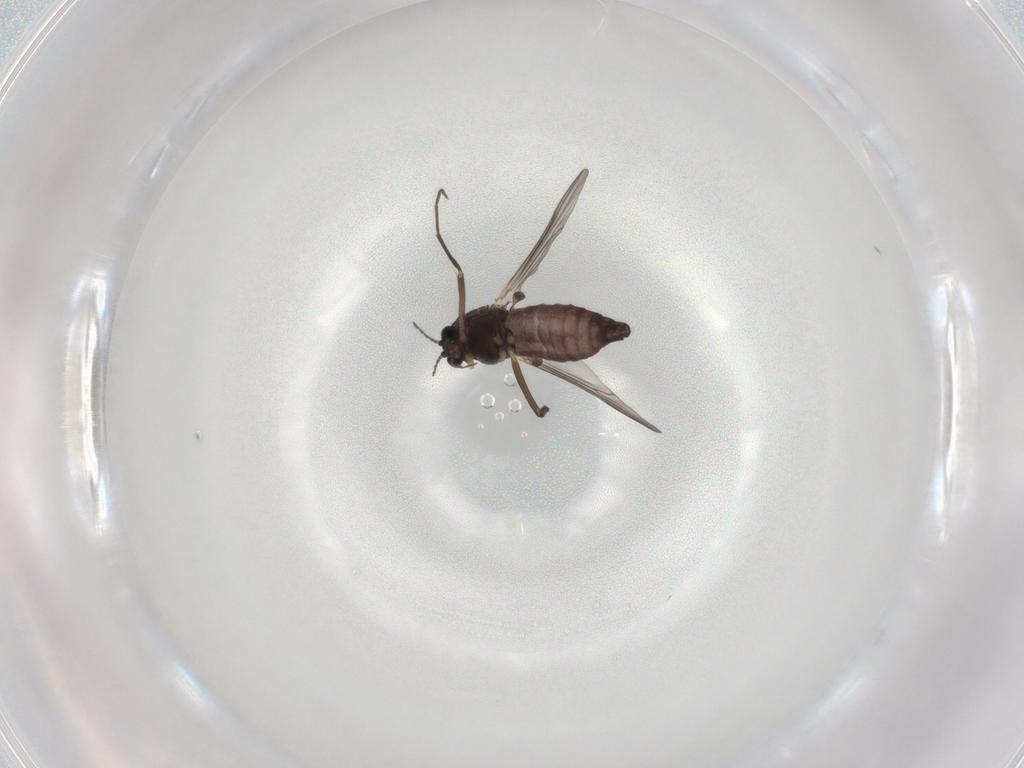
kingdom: Animalia
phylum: Arthropoda
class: Insecta
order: Diptera
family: Chironomidae
